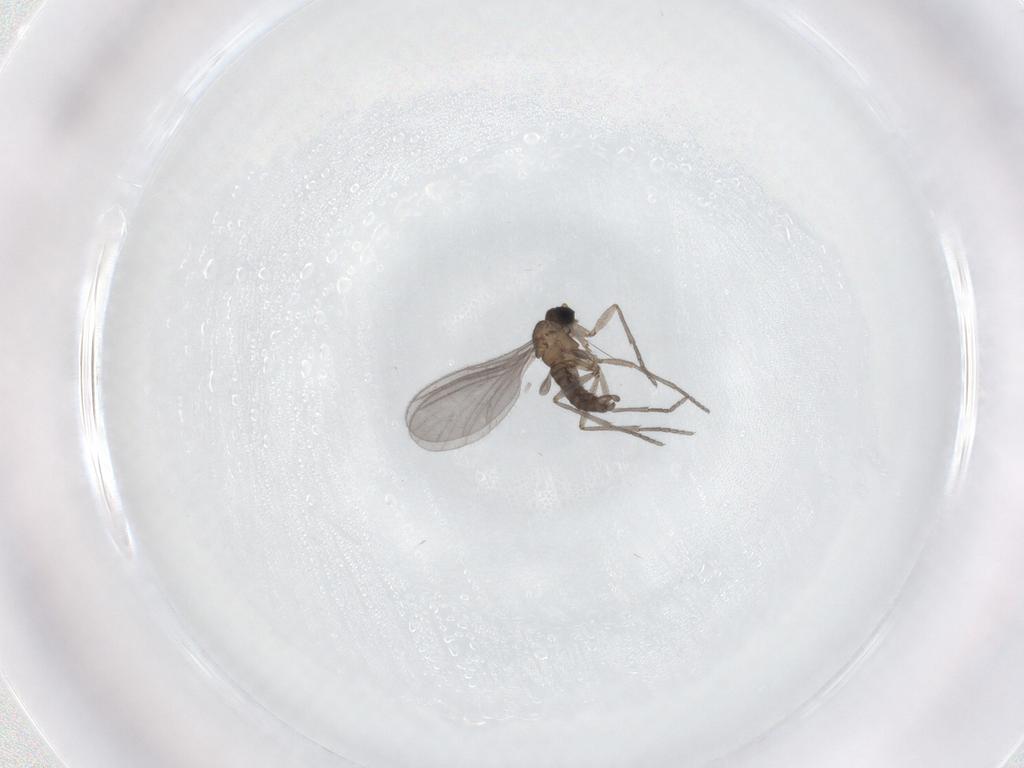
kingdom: Animalia
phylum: Arthropoda
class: Insecta
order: Diptera
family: Sciaridae
